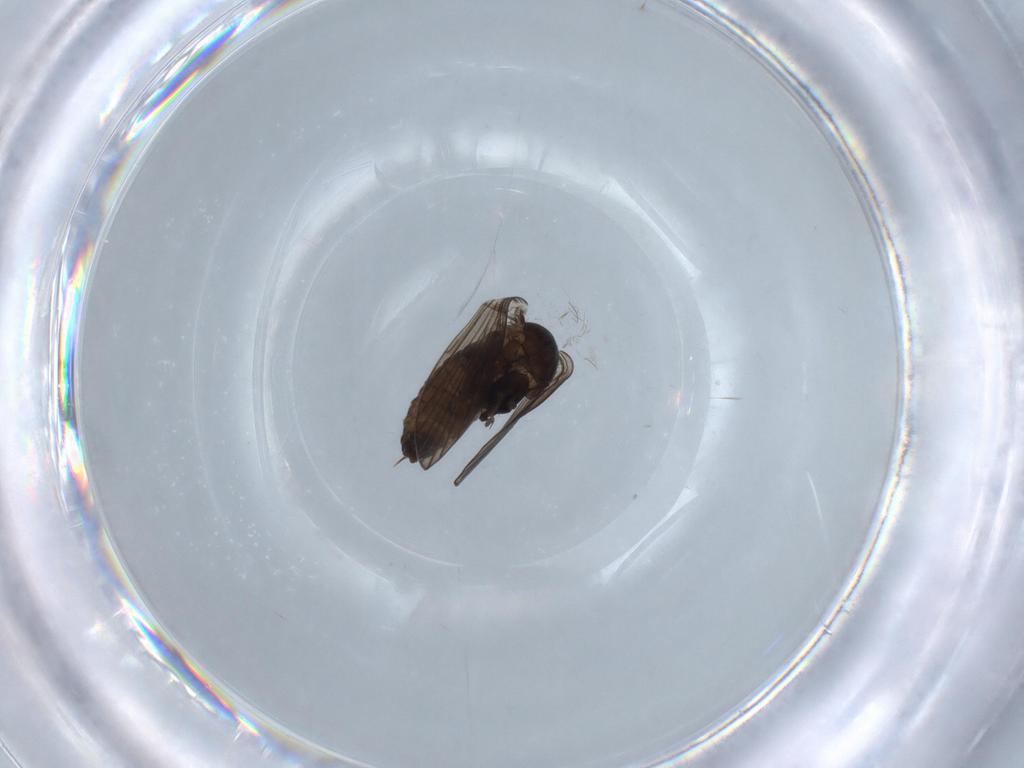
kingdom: Animalia
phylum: Arthropoda
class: Insecta
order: Diptera
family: Psychodidae
